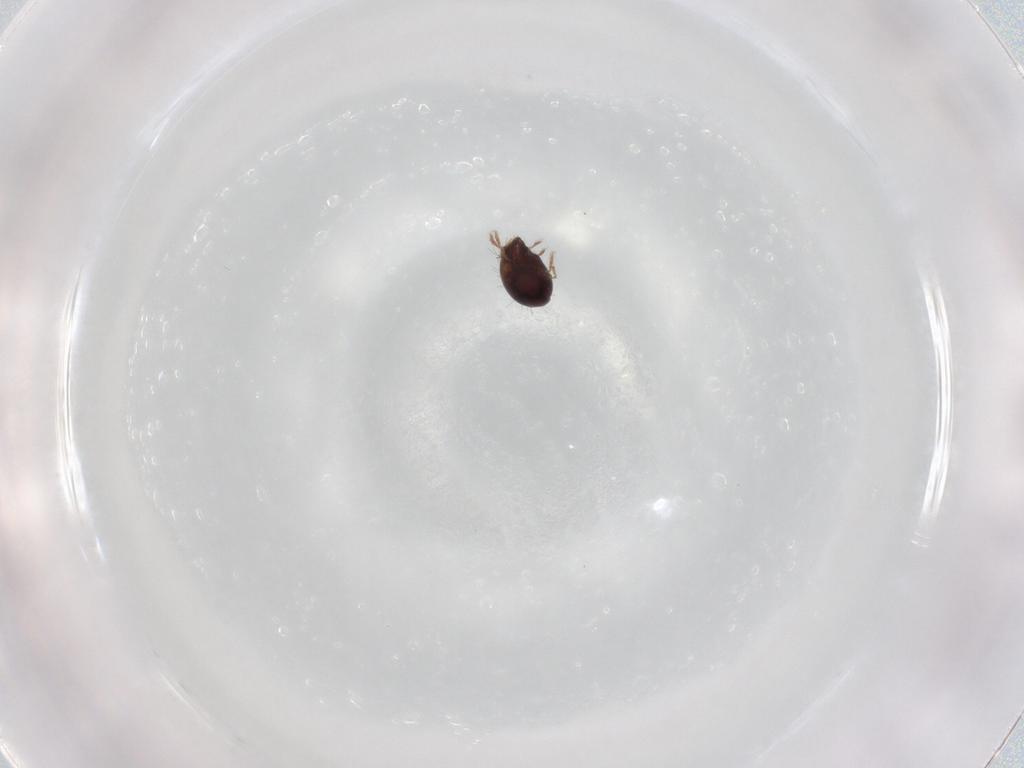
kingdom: Animalia
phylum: Arthropoda
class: Arachnida
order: Sarcoptiformes
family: Humerobatidae
